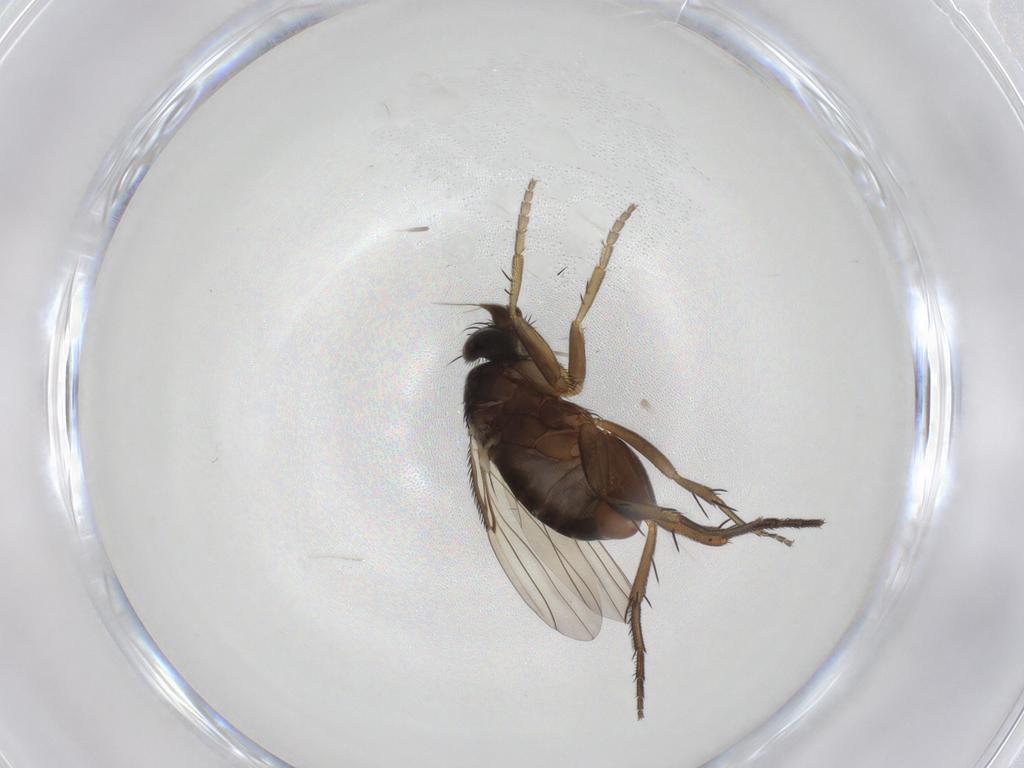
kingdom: Animalia
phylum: Arthropoda
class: Insecta
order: Diptera
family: Phoridae
